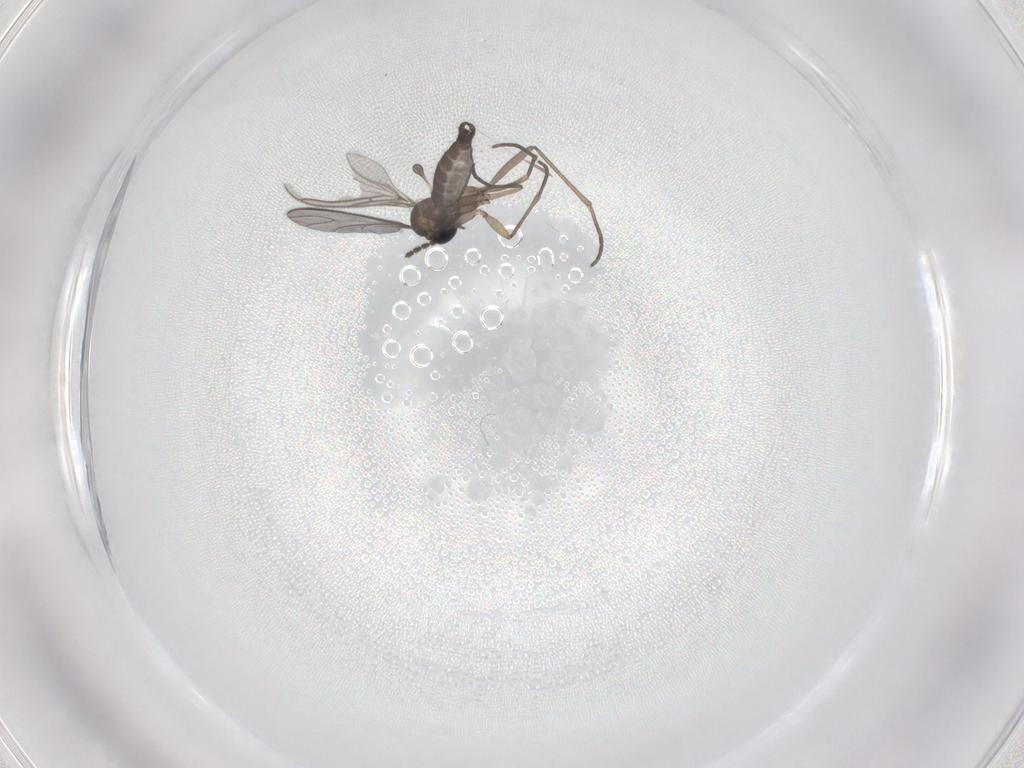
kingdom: Animalia
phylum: Arthropoda
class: Insecta
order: Diptera
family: Sciaridae
